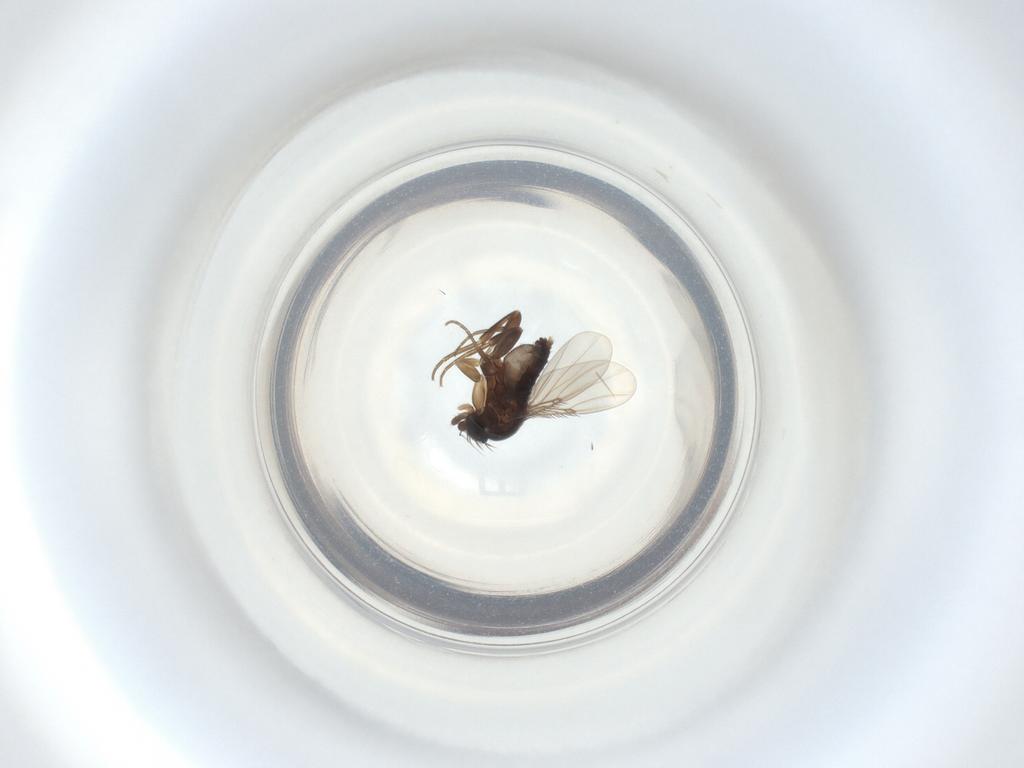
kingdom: Animalia
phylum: Arthropoda
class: Insecta
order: Diptera
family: Phoridae
